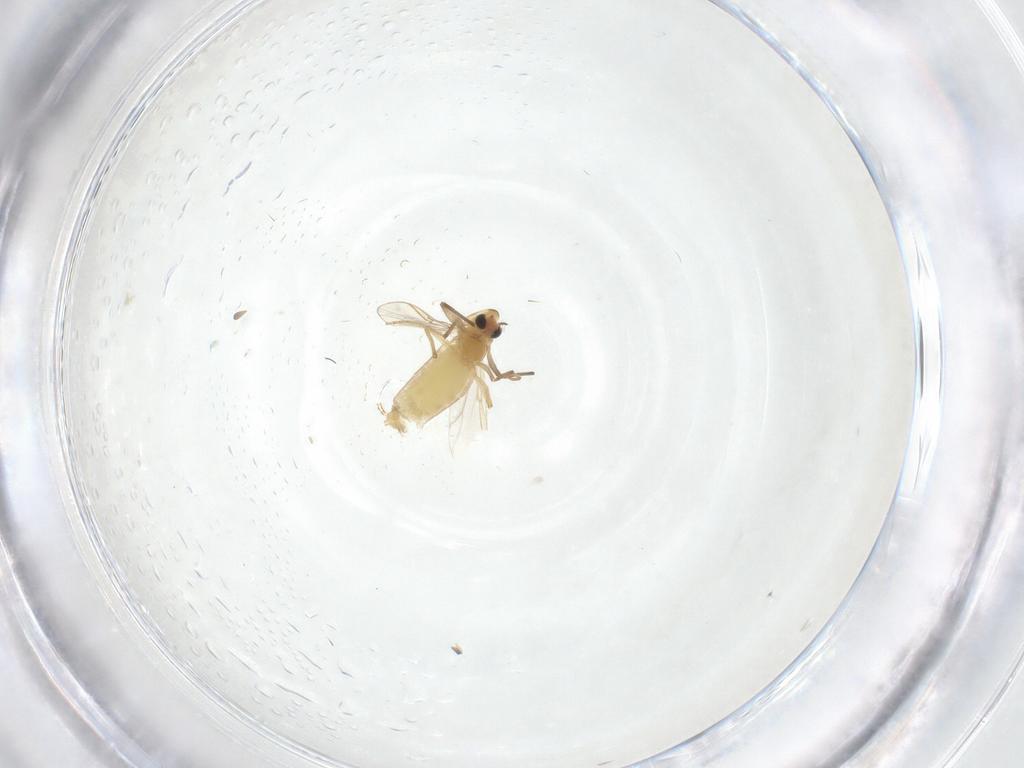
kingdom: Animalia
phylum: Arthropoda
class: Insecta
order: Diptera
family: Chironomidae
